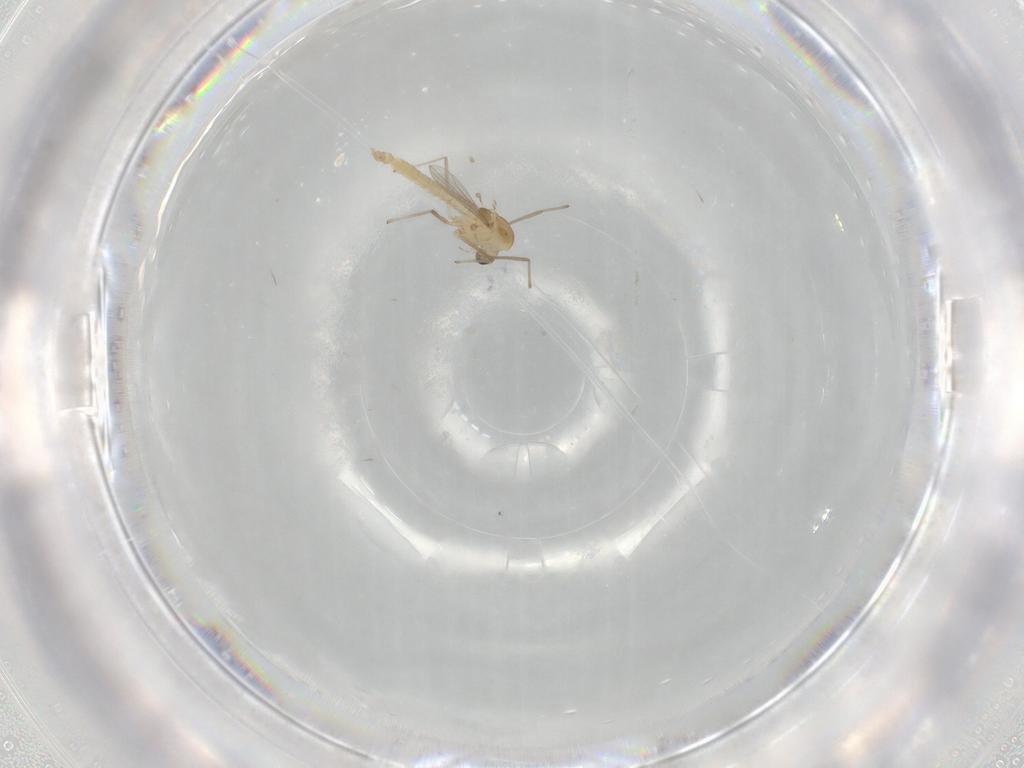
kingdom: Animalia
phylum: Arthropoda
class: Insecta
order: Diptera
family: Chironomidae
